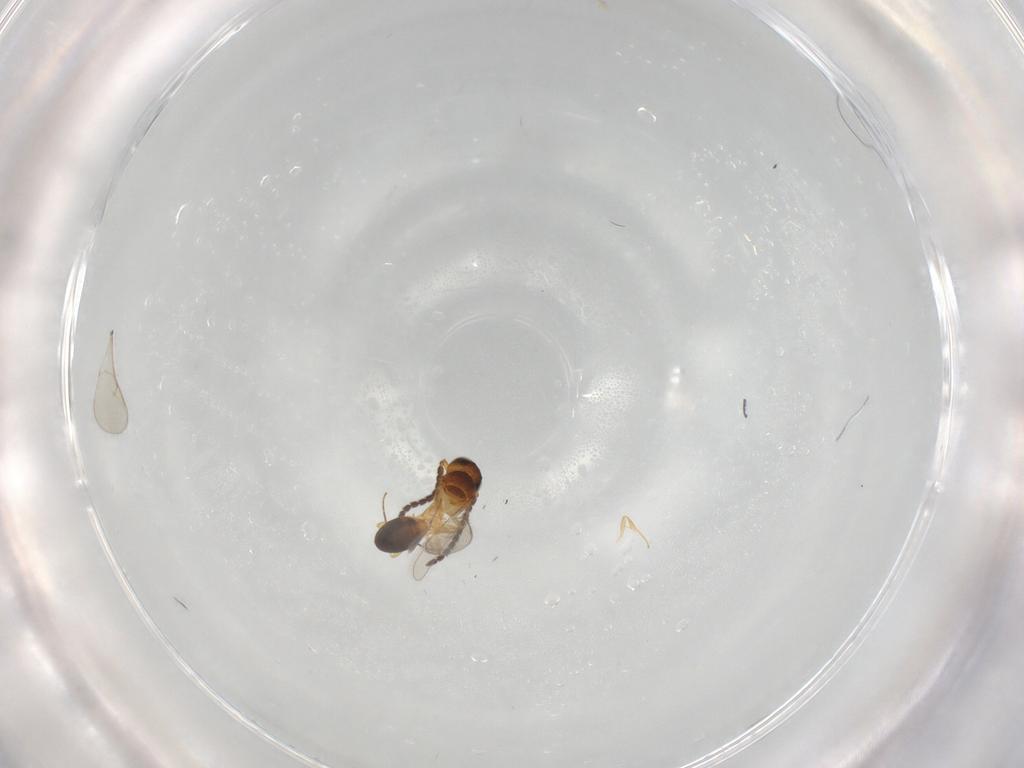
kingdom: Animalia
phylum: Arthropoda
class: Insecta
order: Hymenoptera
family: Scelionidae
